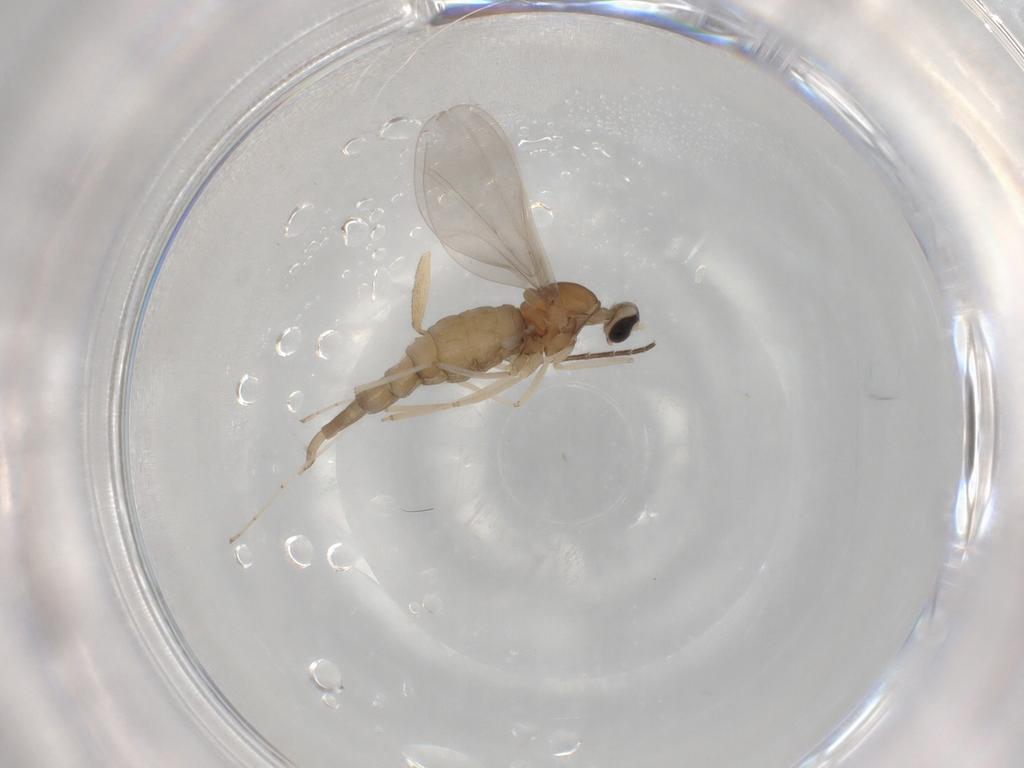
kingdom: Animalia
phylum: Arthropoda
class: Insecta
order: Diptera
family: Cecidomyiidae
